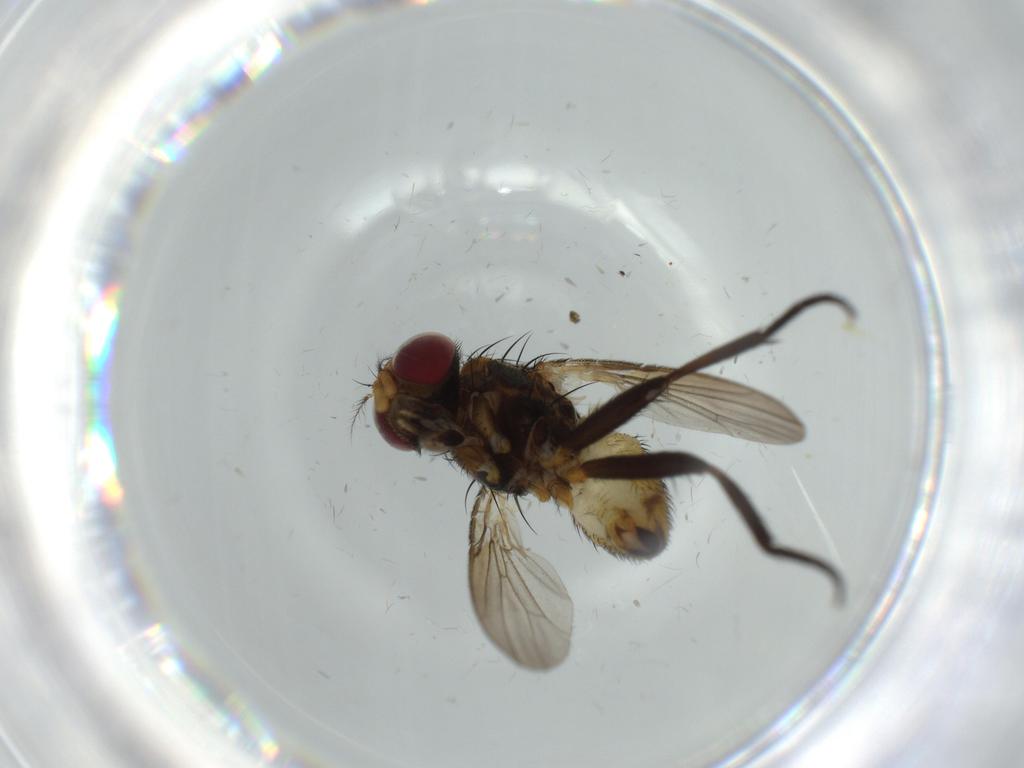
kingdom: Animalia
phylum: Arthropoda
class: Insecta
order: Diptera
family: Anthomyiidae
